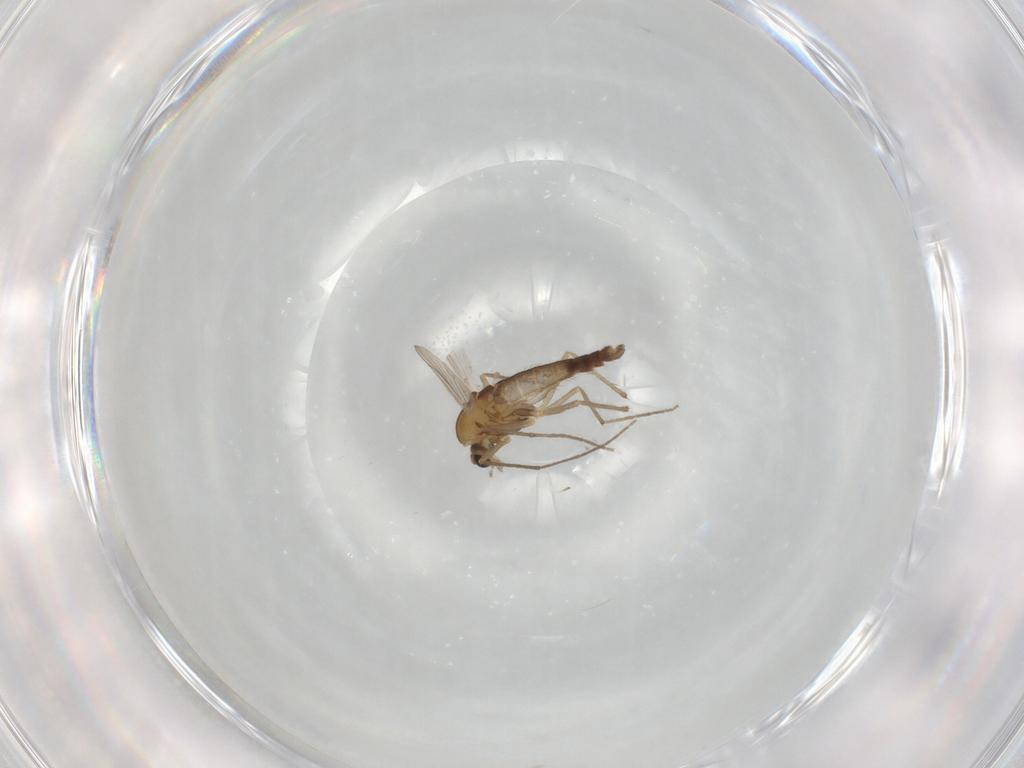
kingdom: Animalia
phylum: Arthropoda
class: Insecta
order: Diptera
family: Chironomidae
